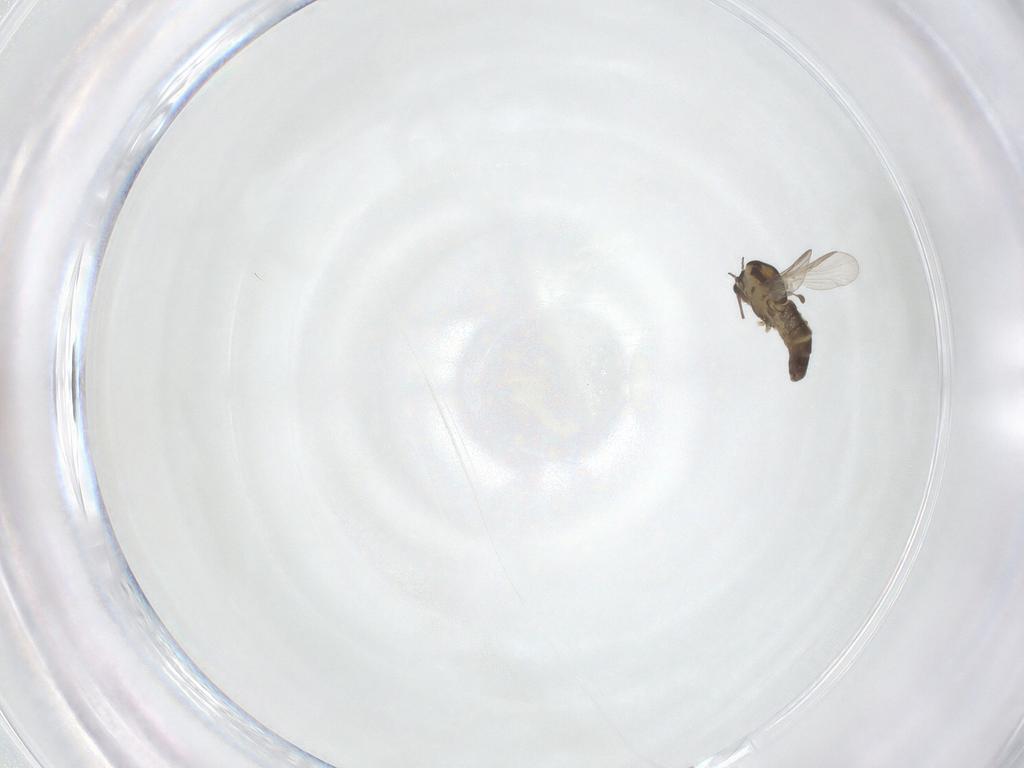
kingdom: Animalia
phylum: Arthropoda
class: Insecta
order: Diptera
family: Chironomidae
